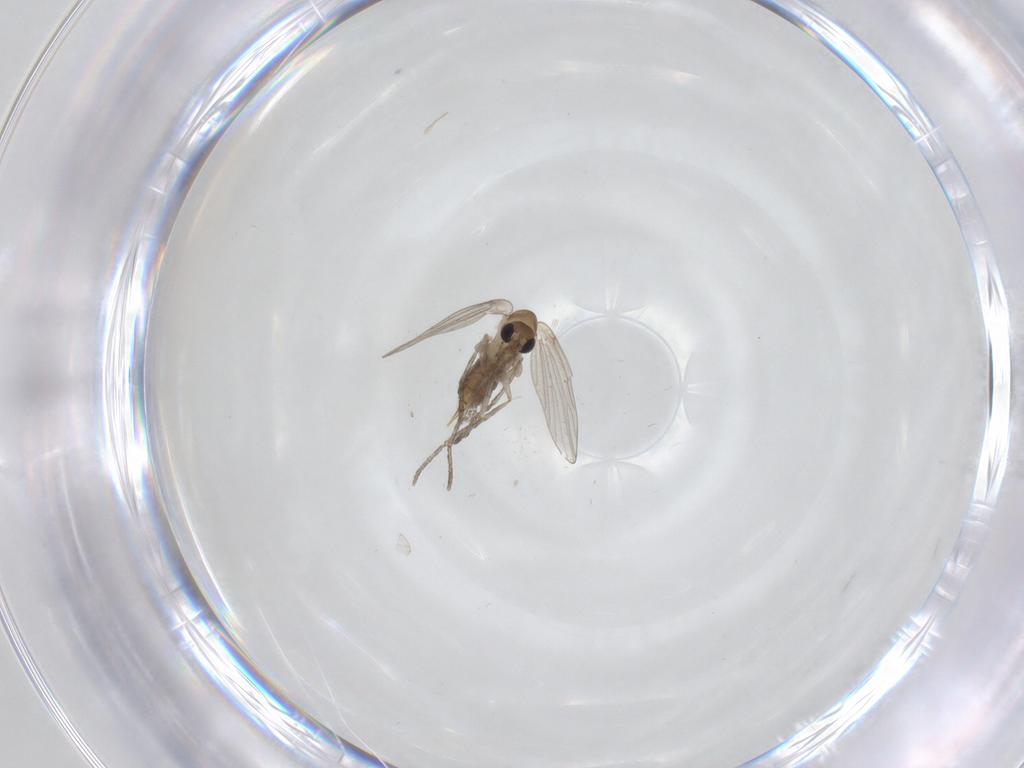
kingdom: Animalia
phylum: Arthropoda
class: Insecta
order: Diptera
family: Psychodidae
